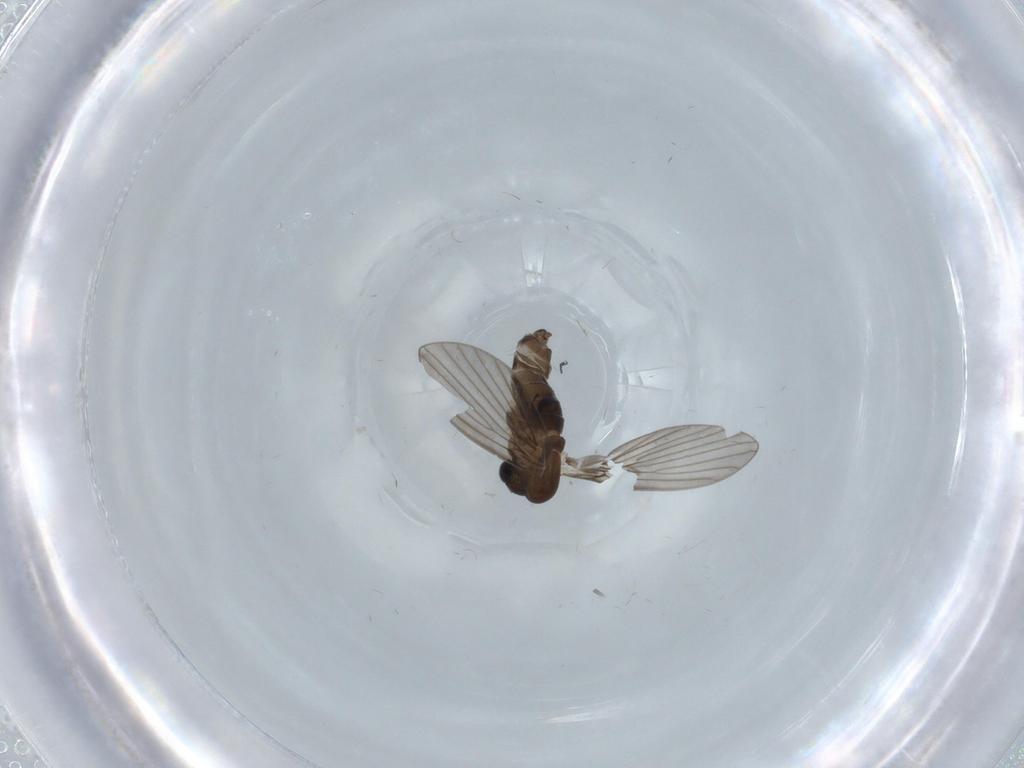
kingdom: Animalia
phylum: Arthropoda
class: Insecta
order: Diptera
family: Psychodidae
